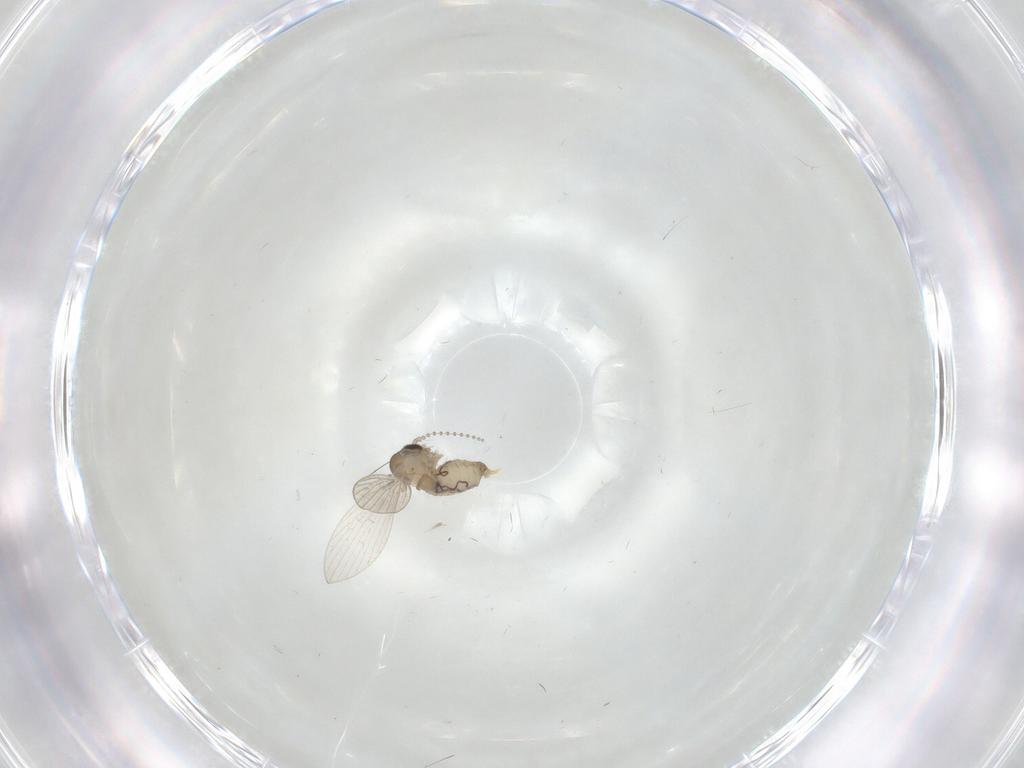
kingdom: Animalia
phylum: Arthropoda
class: Insecta
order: Diptera
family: Psychodidae
